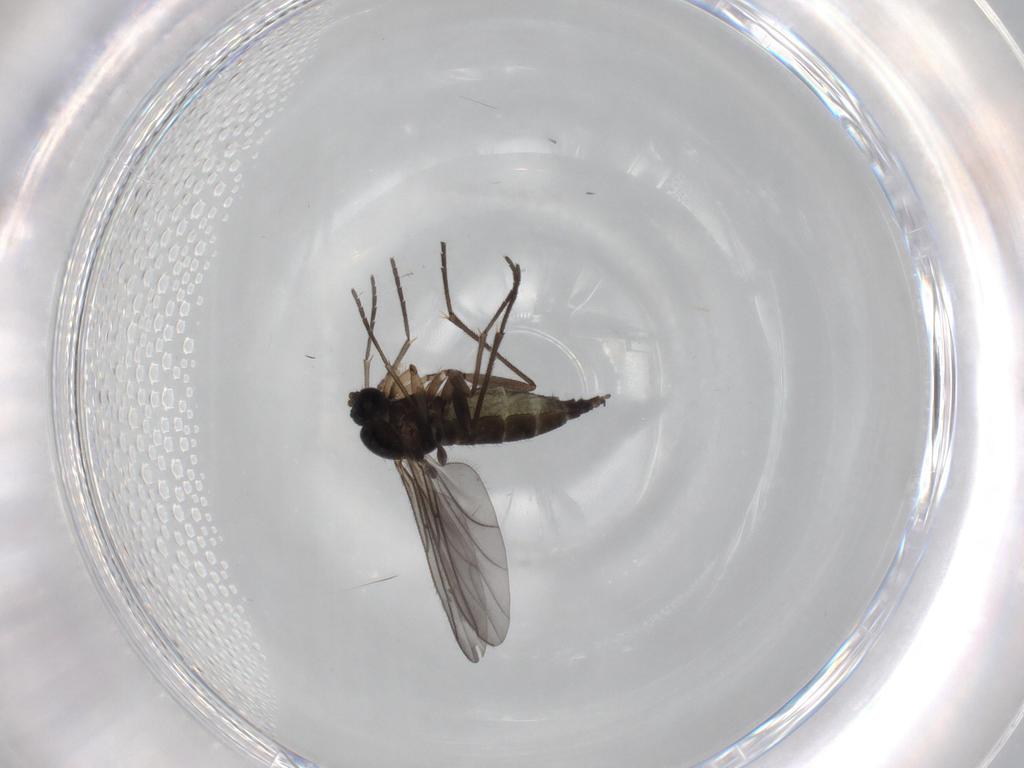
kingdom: Animalia
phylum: Arthropoda
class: Insecta
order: Diptera
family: Sciaridae
